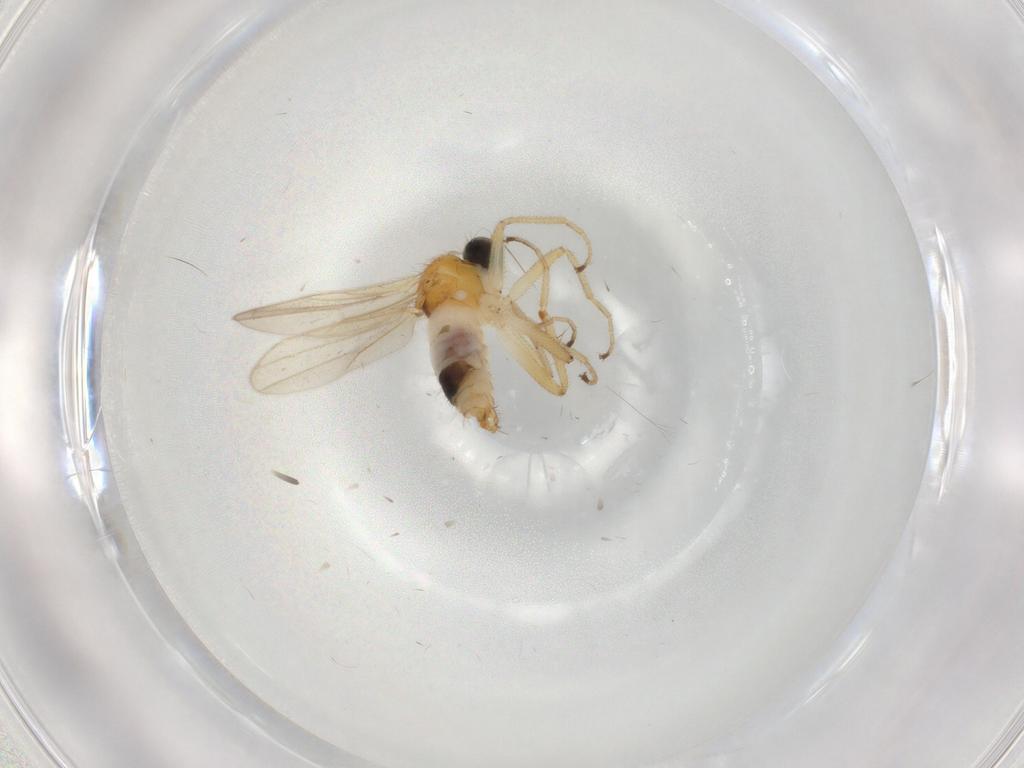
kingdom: Animalia
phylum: Arthropoda
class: Insecta
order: Diptera
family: Hybotidae
